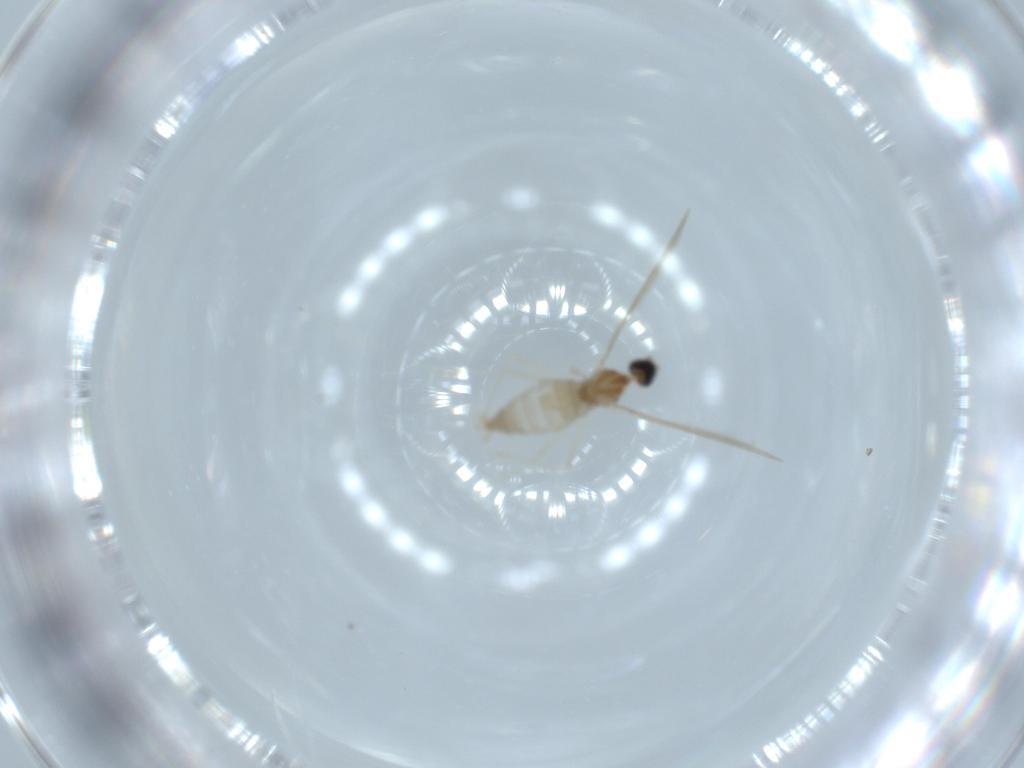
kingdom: Animalia
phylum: Arthropoda
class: Insecta
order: Diptera
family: Cecidomyiidae
